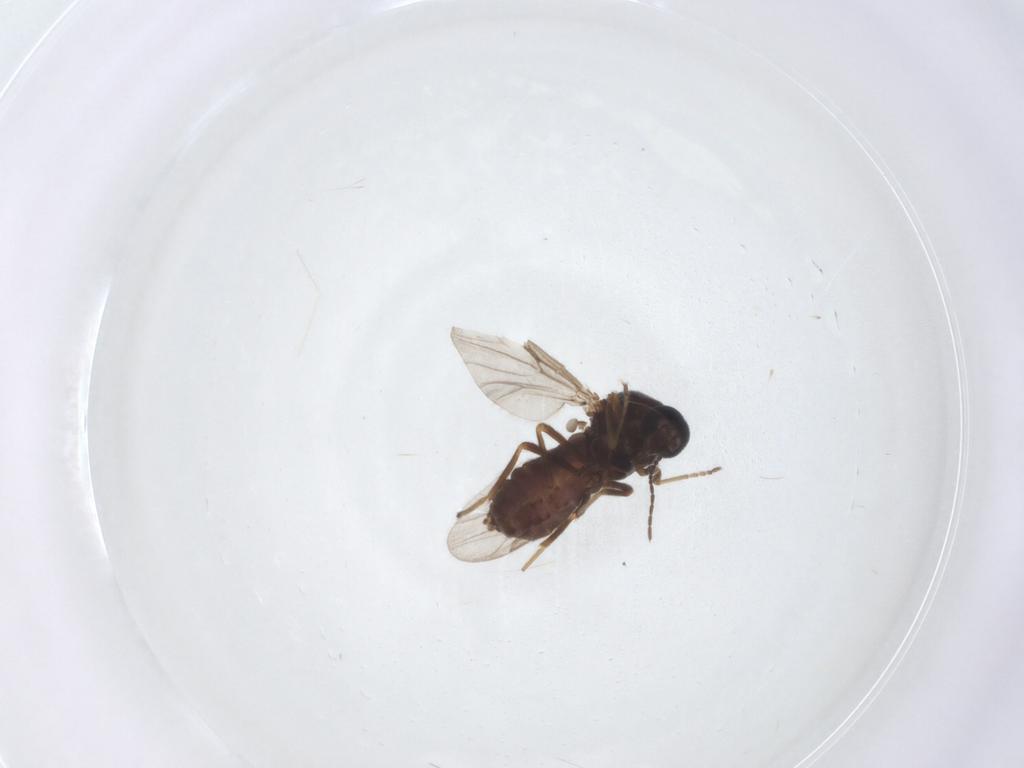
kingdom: Animalia
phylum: Arthropoda
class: Insecta
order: Diptera
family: Ceratopogonidae
